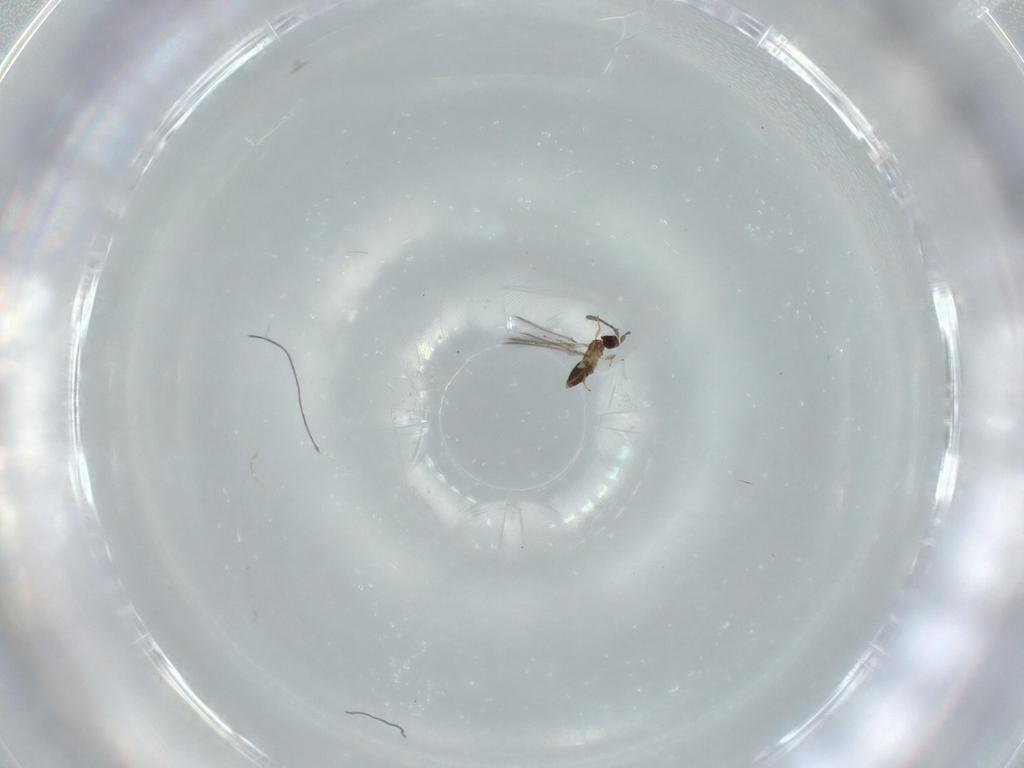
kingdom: Animalia
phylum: Arthropoda
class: Insecta
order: Hymenoptera
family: Mymaridae
